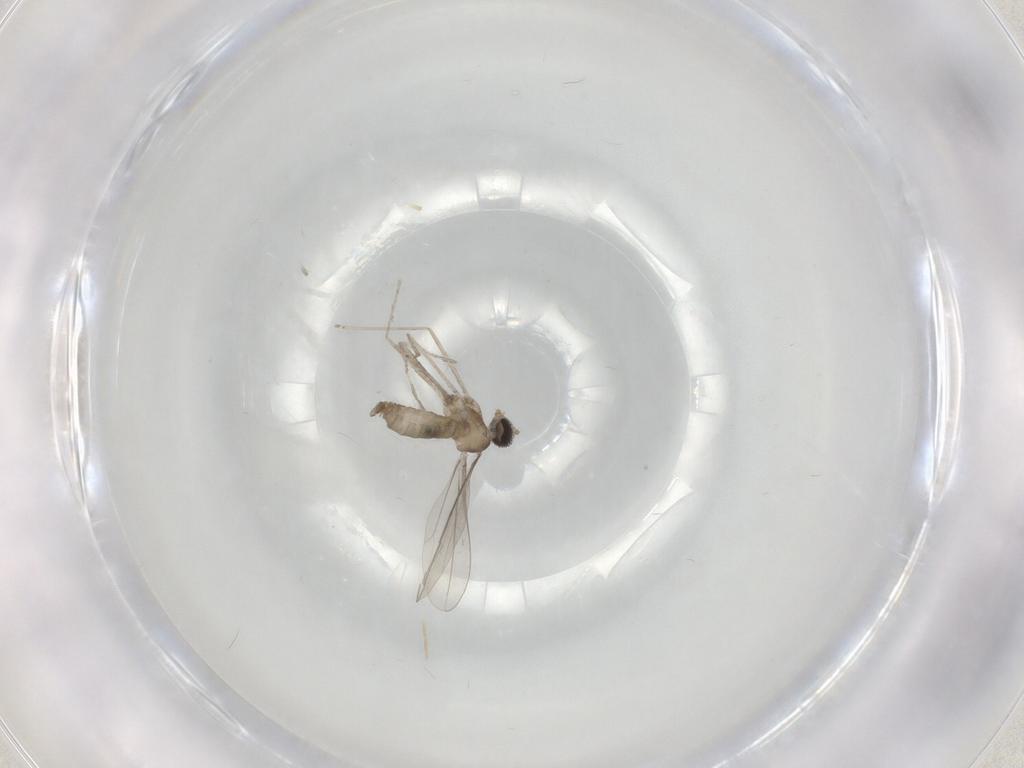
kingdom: Animalia
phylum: Arthropoda
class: Insecta
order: Diptera
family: Cecidomyiidae
